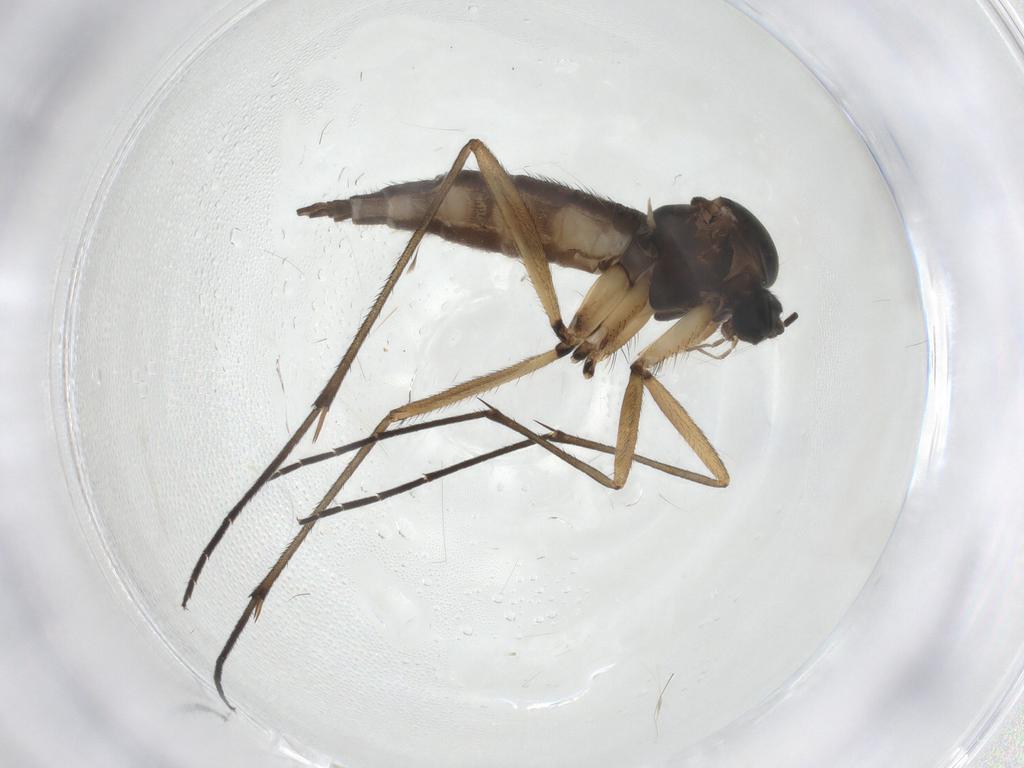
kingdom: Animalia
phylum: Arthropoda
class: Insecta
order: Diptera
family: Sciaridae
